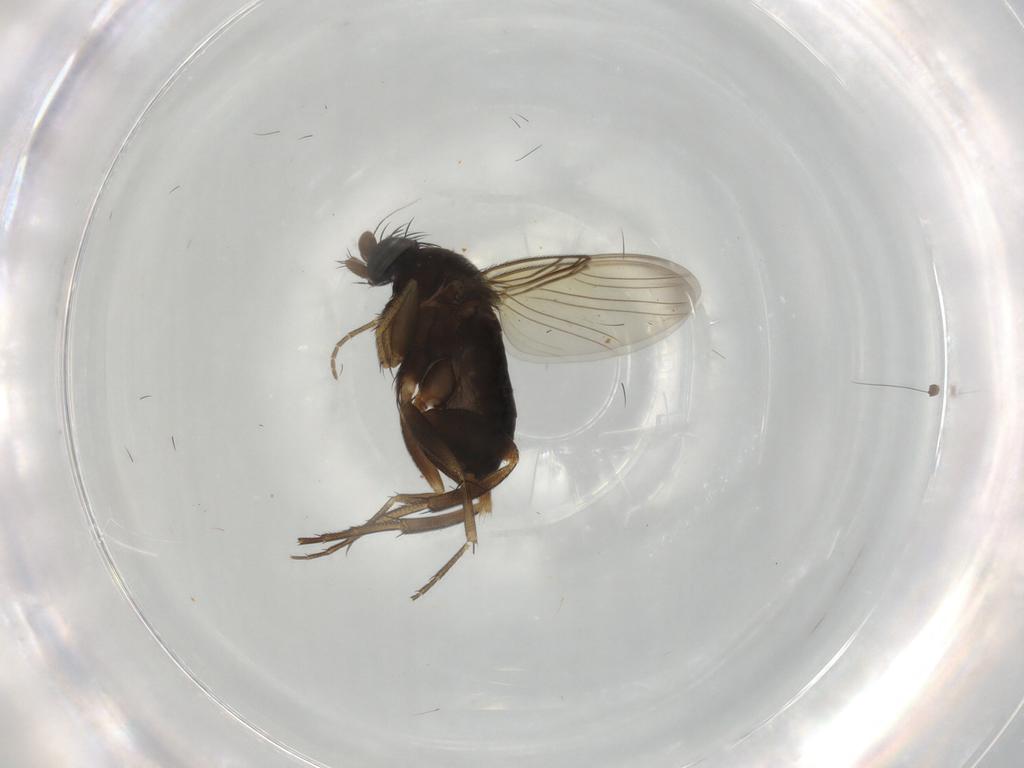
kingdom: Animalia
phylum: Arthropoda
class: Insecta
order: Diptera
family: Phoridae
